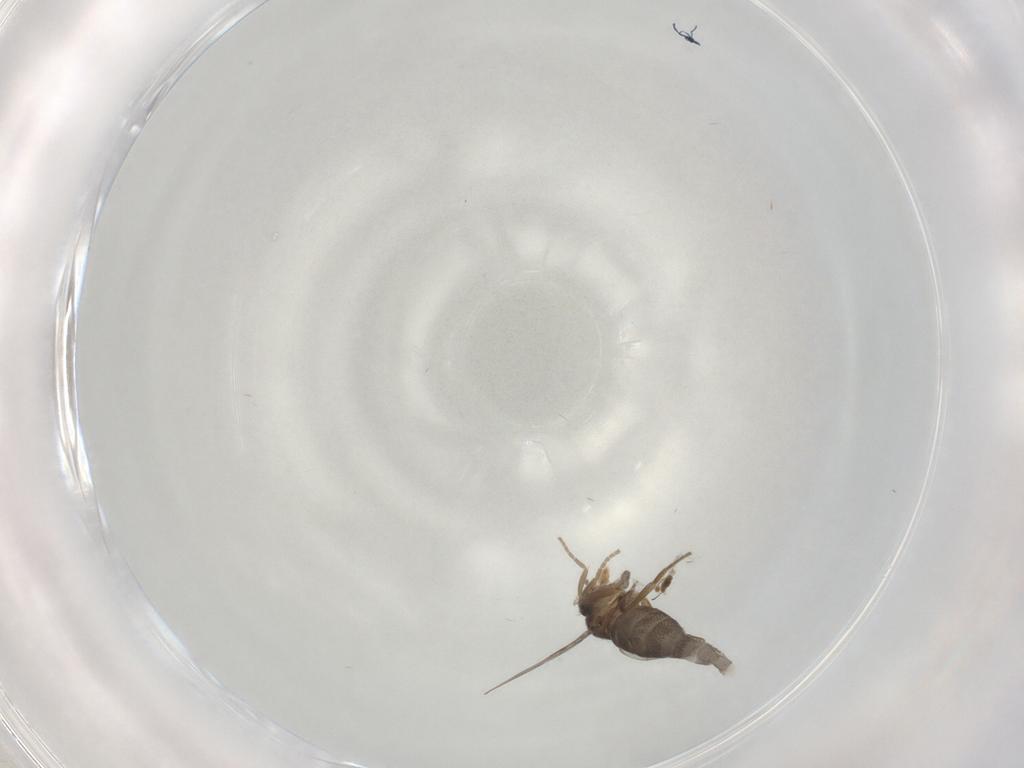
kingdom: Animalia
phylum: Arthropoda
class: Insecta
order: Diptera
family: Phoridae
